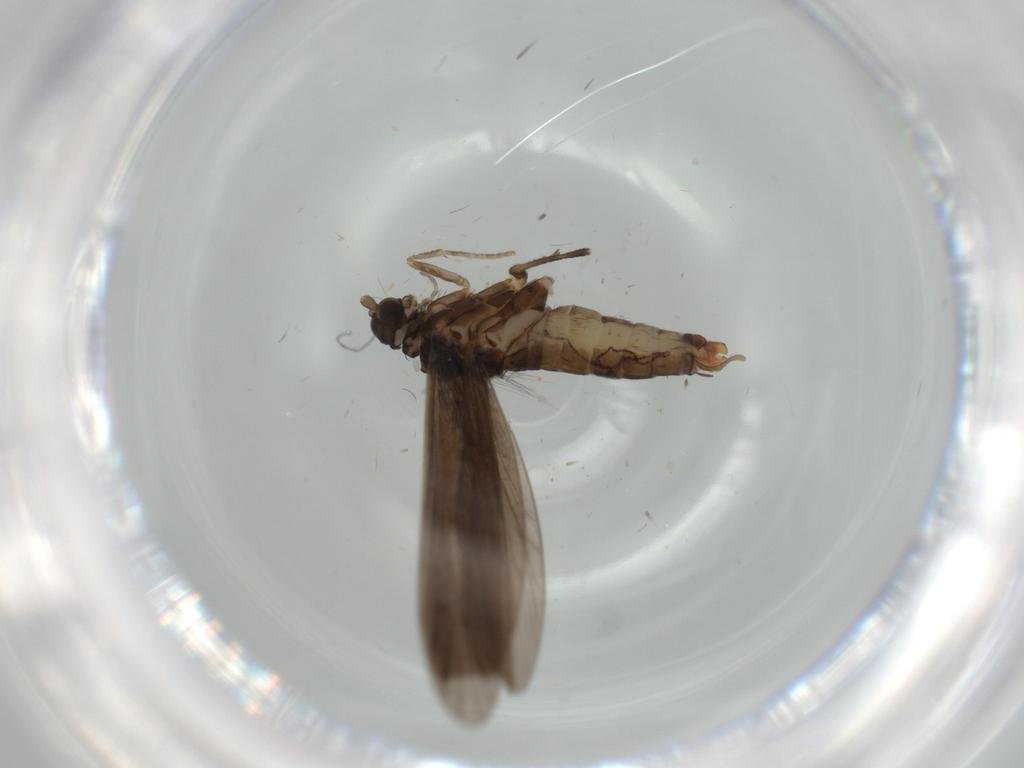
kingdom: Animalia
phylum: Arthropoda
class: Insecta
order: Trichoptera
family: Xiphocentronidae
